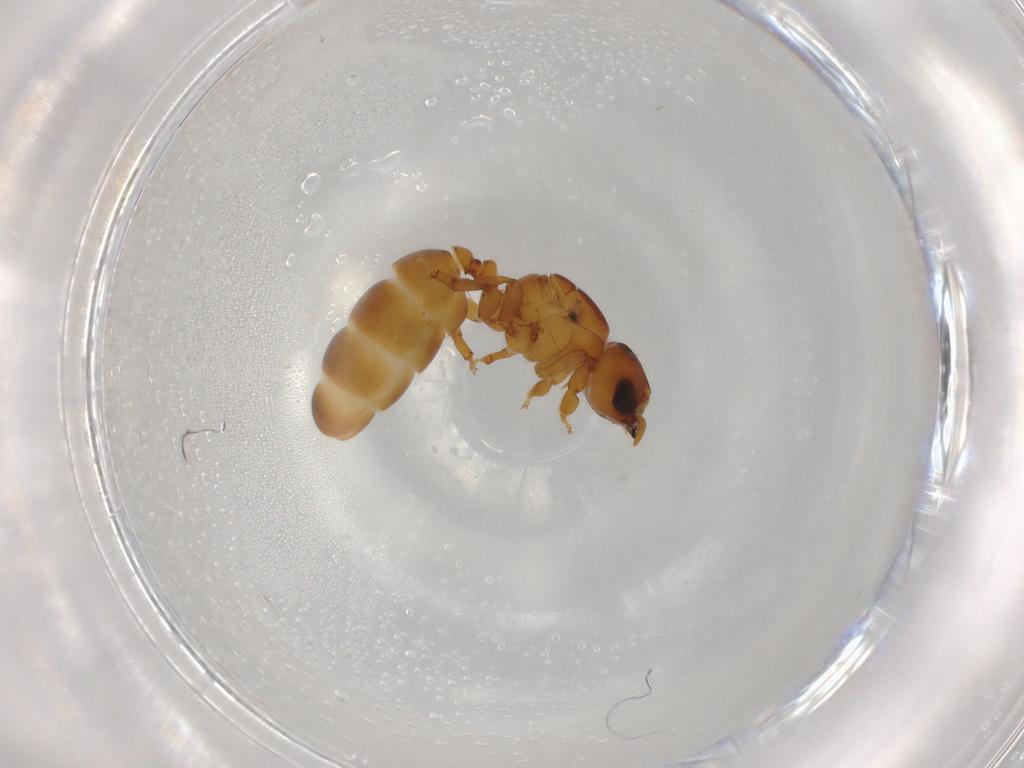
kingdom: Animalia
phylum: Arthropoda
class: Insecta
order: Hymenoptera
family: Formicidae
